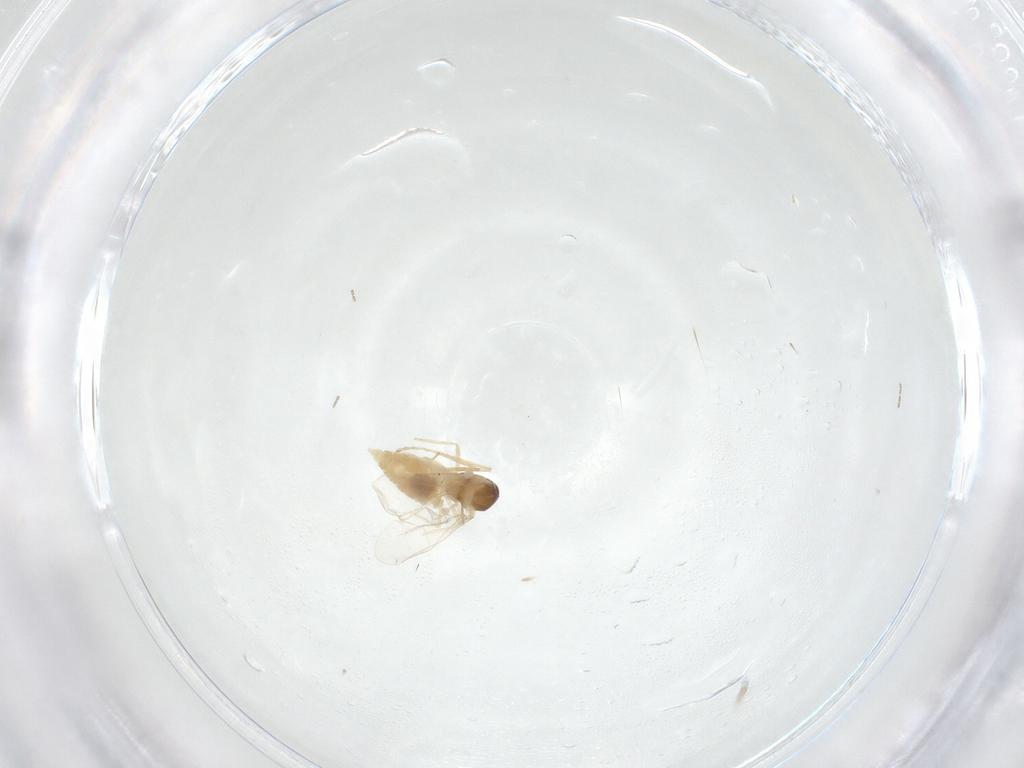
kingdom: Animalia
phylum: Arthropoda
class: Insecta
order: Diptera
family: Cecidomyiidae
